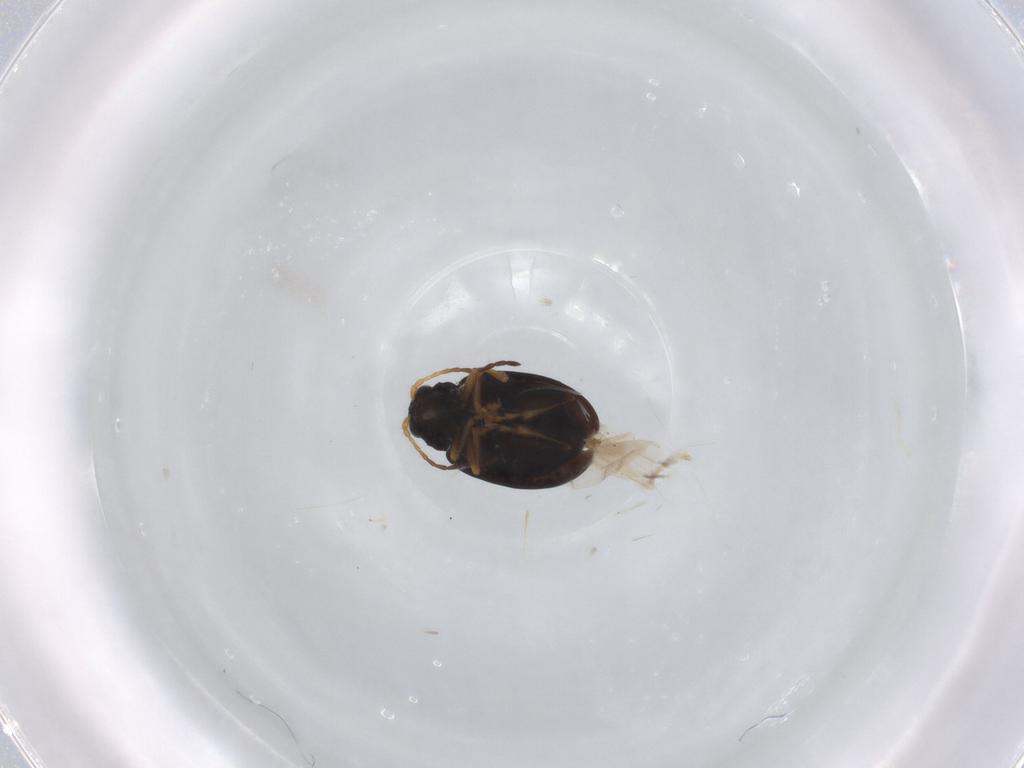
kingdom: Animalia
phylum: Arthropoda
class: Insecta
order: Coleoptera
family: Chrysomelidae
